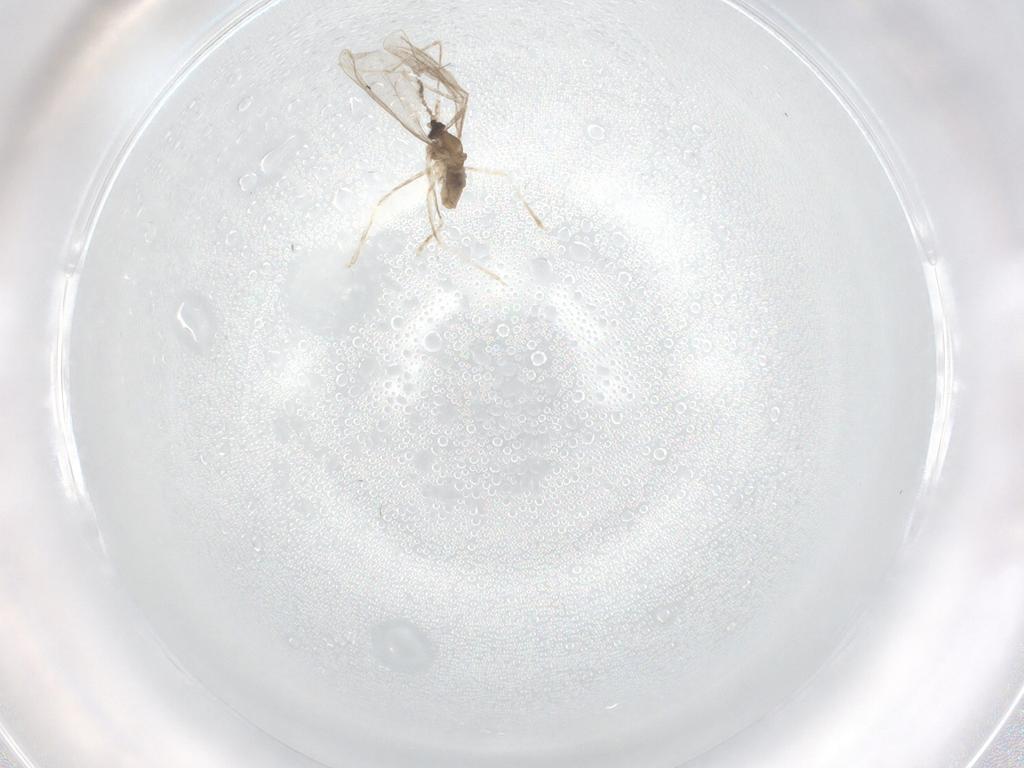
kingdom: Animalia
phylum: Arthropoda
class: Insecta
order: Diptera
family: Cecidomyiidae
